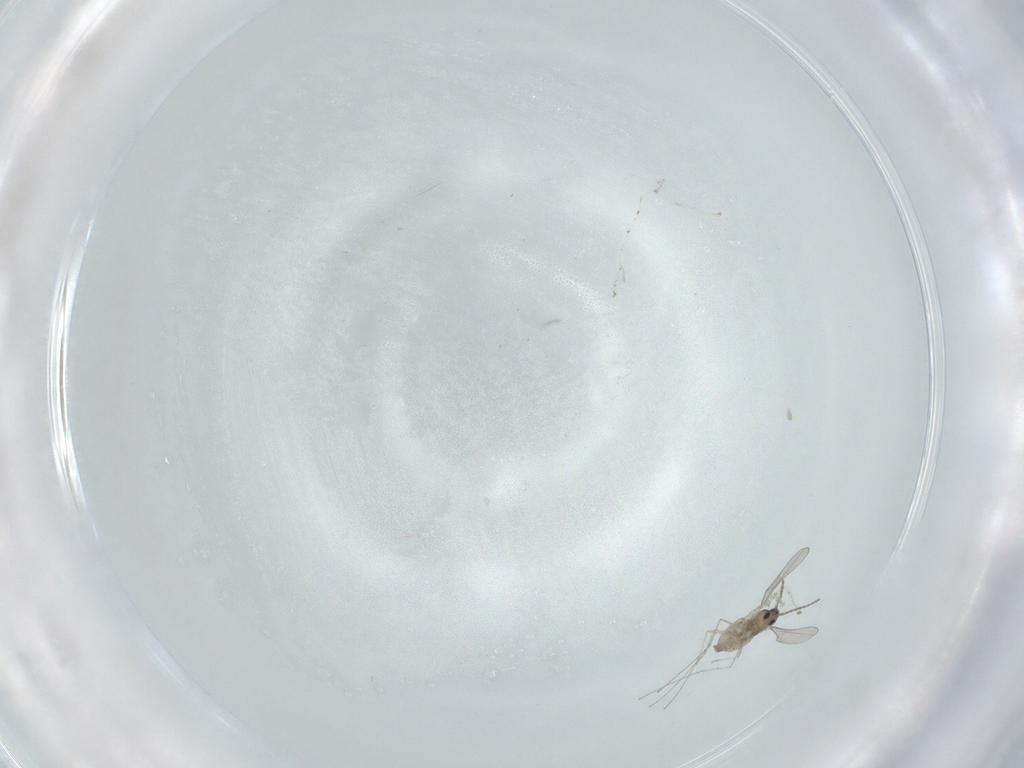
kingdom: Animalia
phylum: Arthropoda
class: Insecta
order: Diptera
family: Cecidomyiidae
